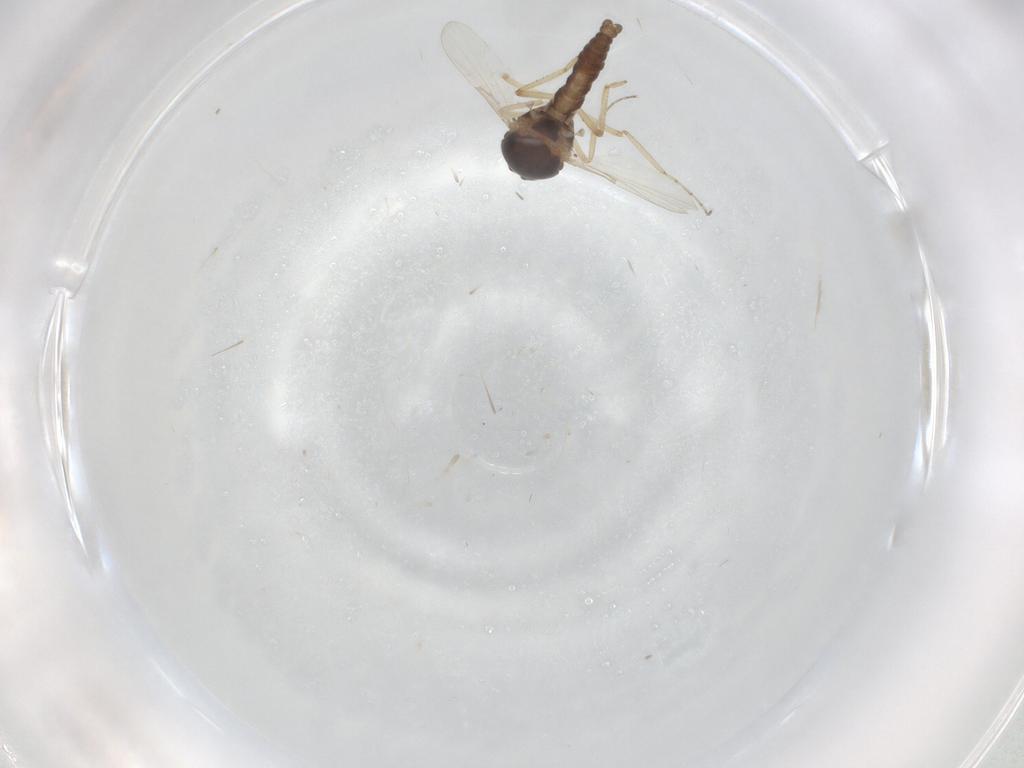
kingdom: Animalia
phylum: Arthropoda
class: Insecta
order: Diptera
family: Ceratopogonidae
